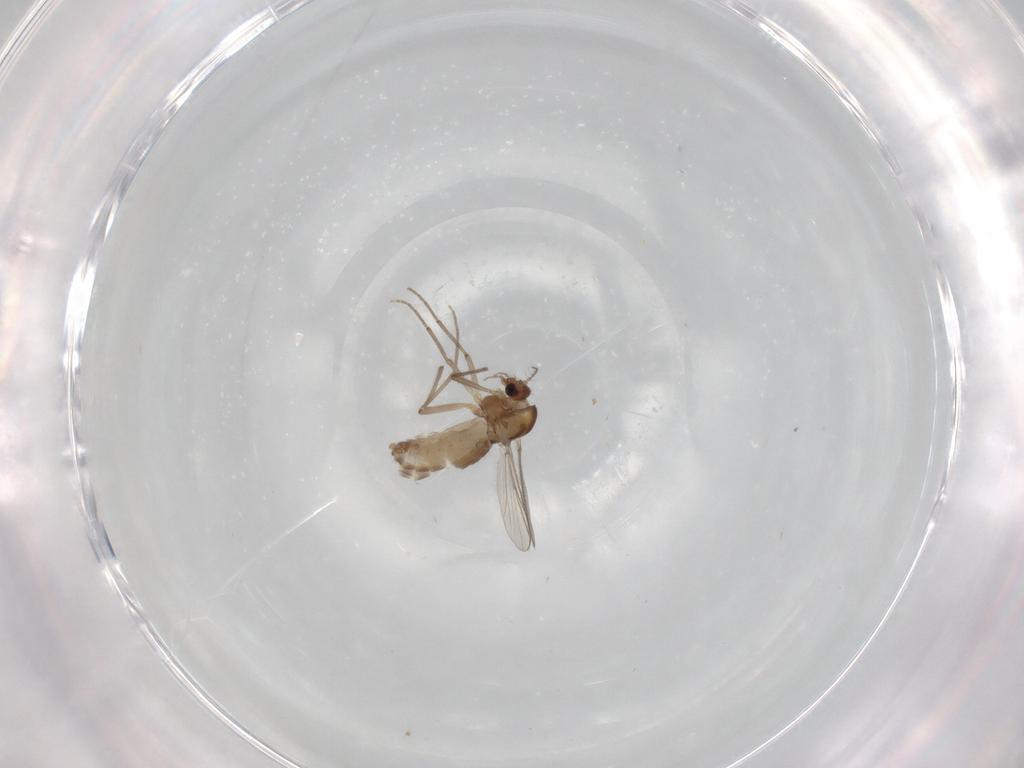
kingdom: Animalia
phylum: Arthropoda
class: Insecta
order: Diptera
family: Chironomidae
